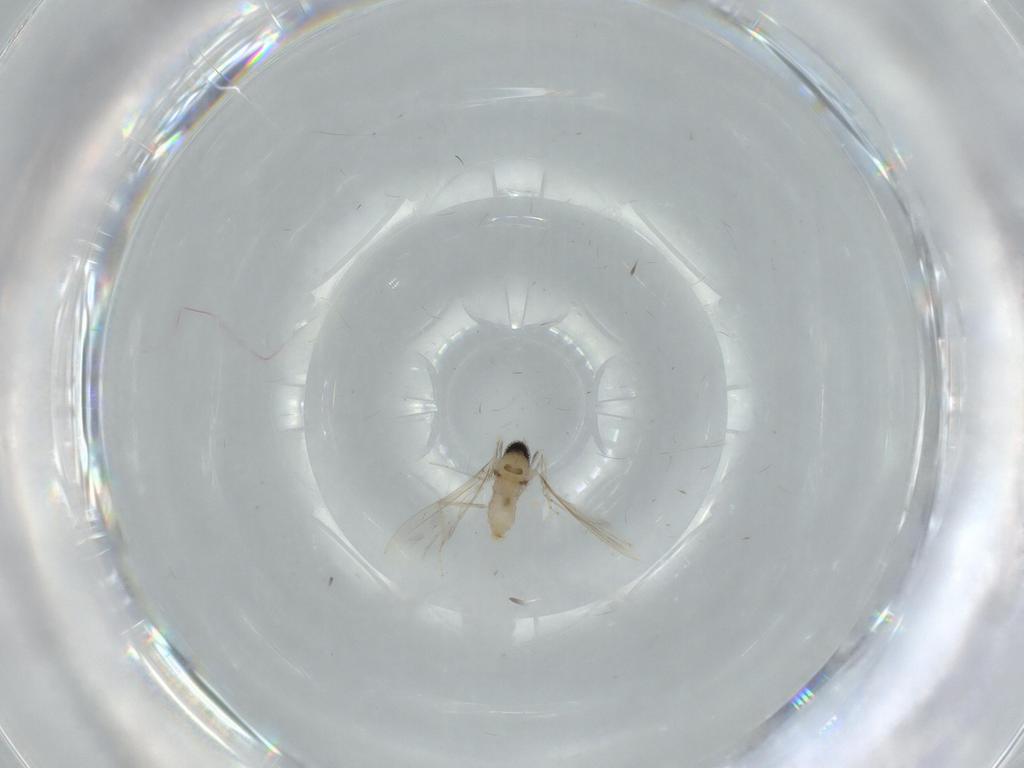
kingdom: Animalia
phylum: Arthropoda
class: Insecta
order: Diptera
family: Cecidomyiidae
